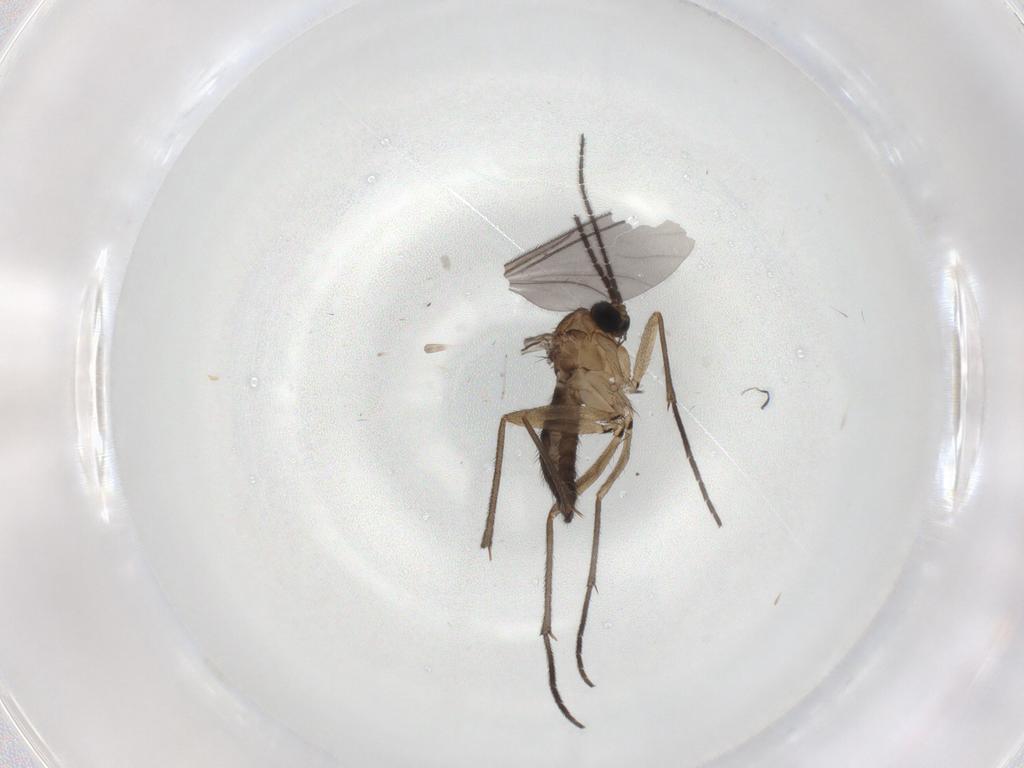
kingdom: Animalia
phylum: Arthropoda
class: Insecta
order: Diptera
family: Sciaridae
